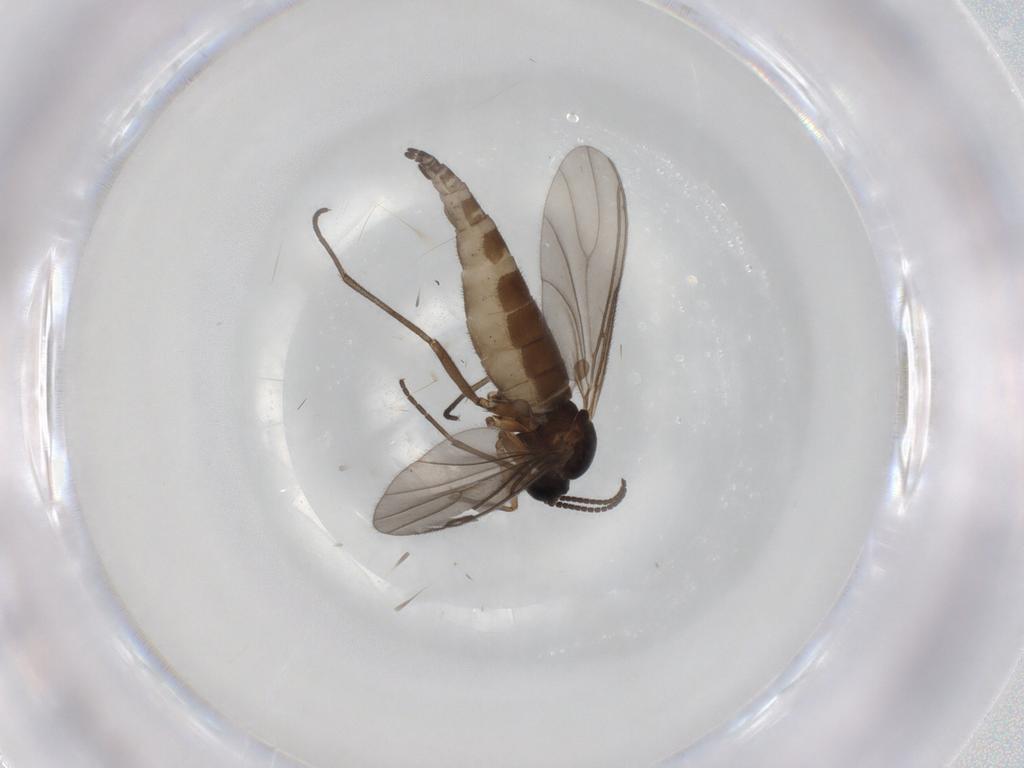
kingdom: Animalia
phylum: Arthropoda
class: Insecta
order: Diptera
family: Sciaridae
